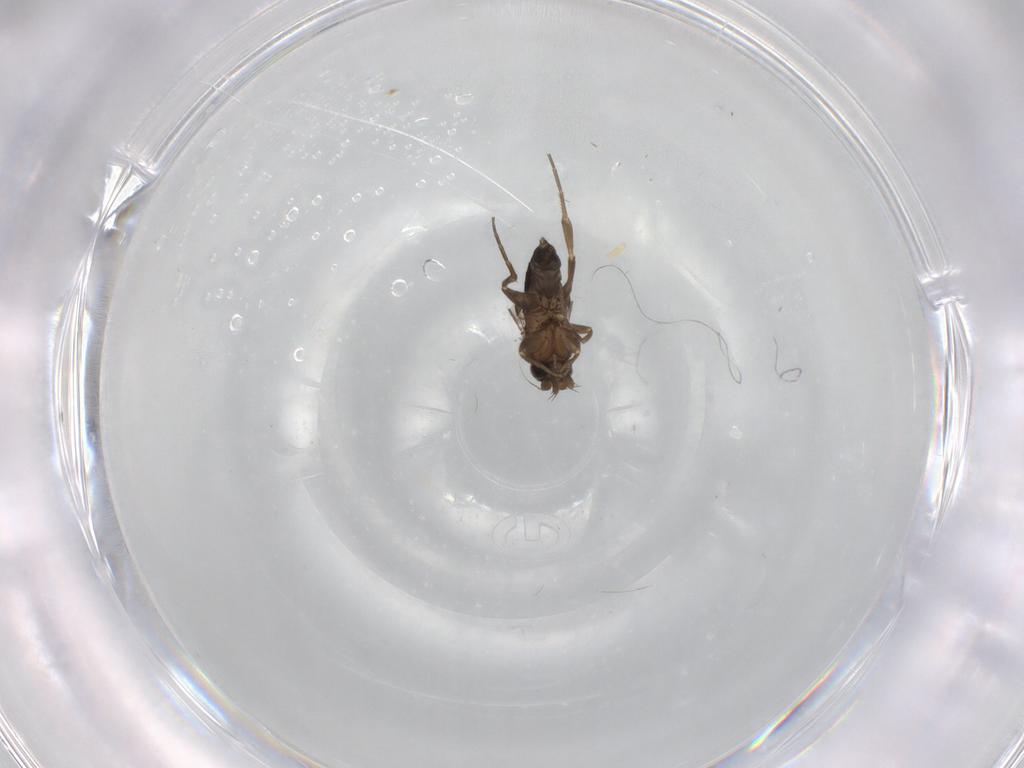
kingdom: Animalia
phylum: Arthropoda
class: Insecta
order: Diptera
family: Phoridae
